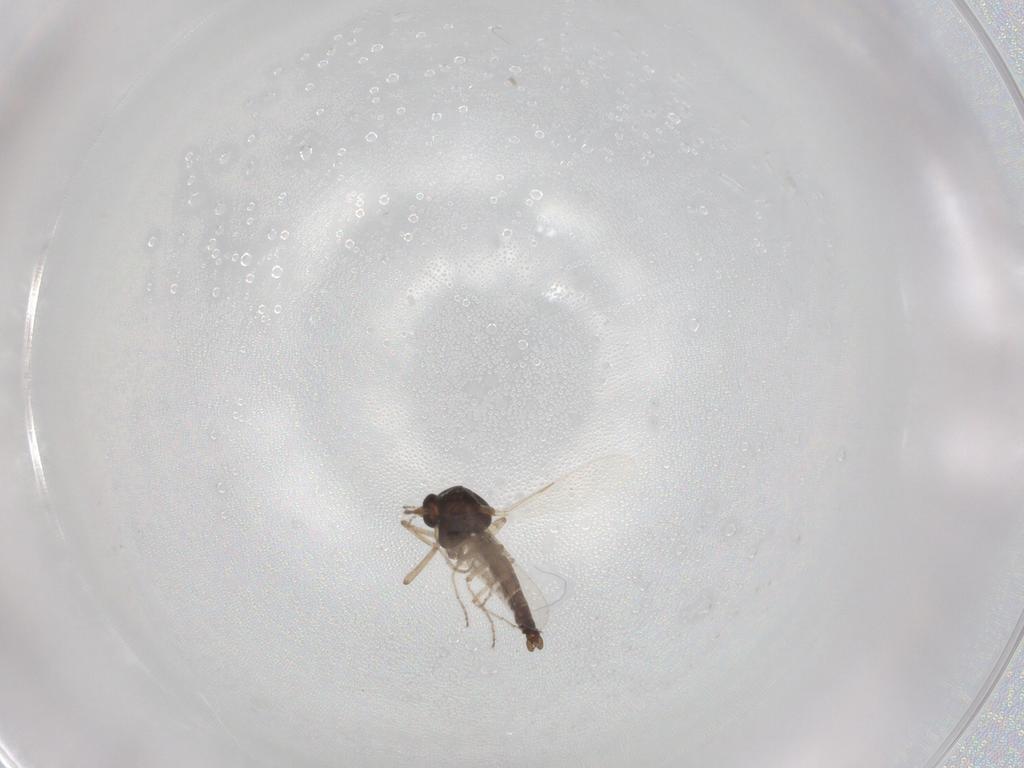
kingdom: Animalia
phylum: Arthropoda
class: Insecta
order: Diptera
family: Ceratopogonidae
